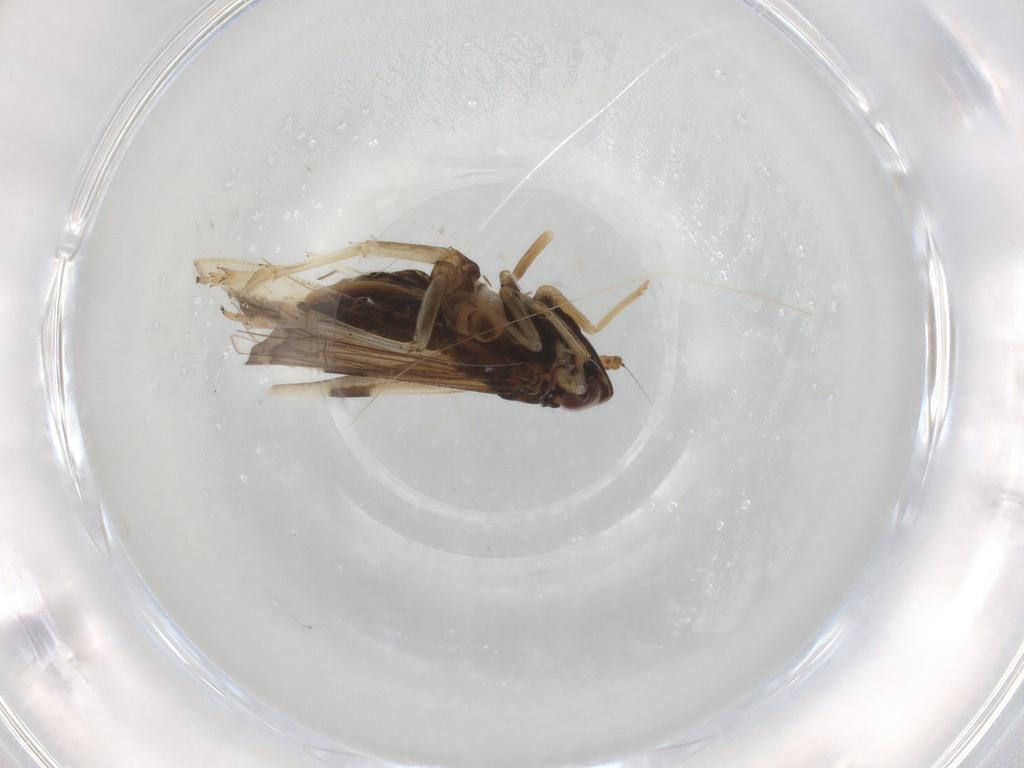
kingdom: Animalia
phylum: Arthropoda
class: Insecta
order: Hemiptera
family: Delphacidae
